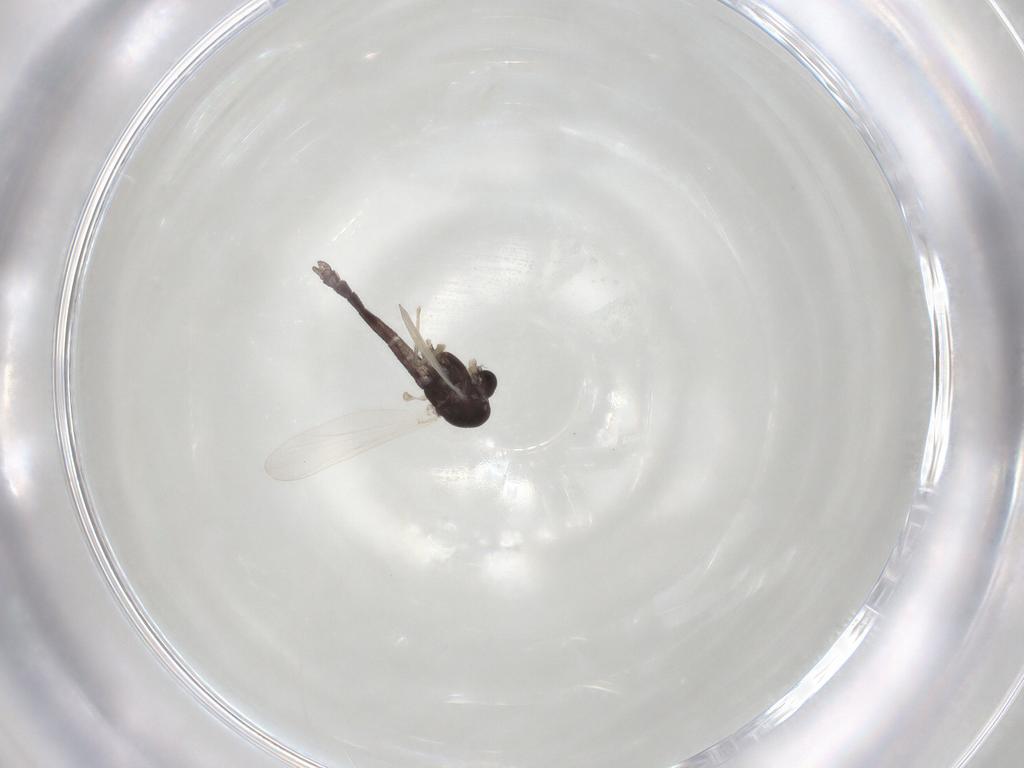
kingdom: Animalia
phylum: Arthropoda
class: Insecta
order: Diptera
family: Chironomidae
